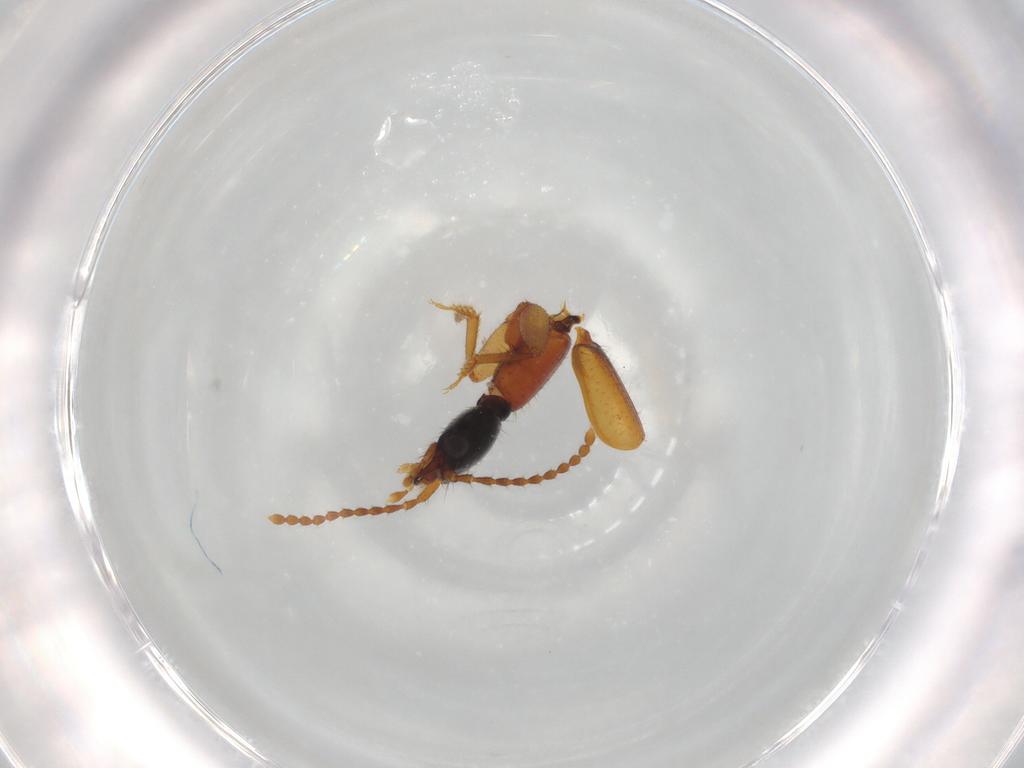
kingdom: Animalia
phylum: Arthropoda
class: Insecta
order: Coleoptera
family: Staphylinidae
